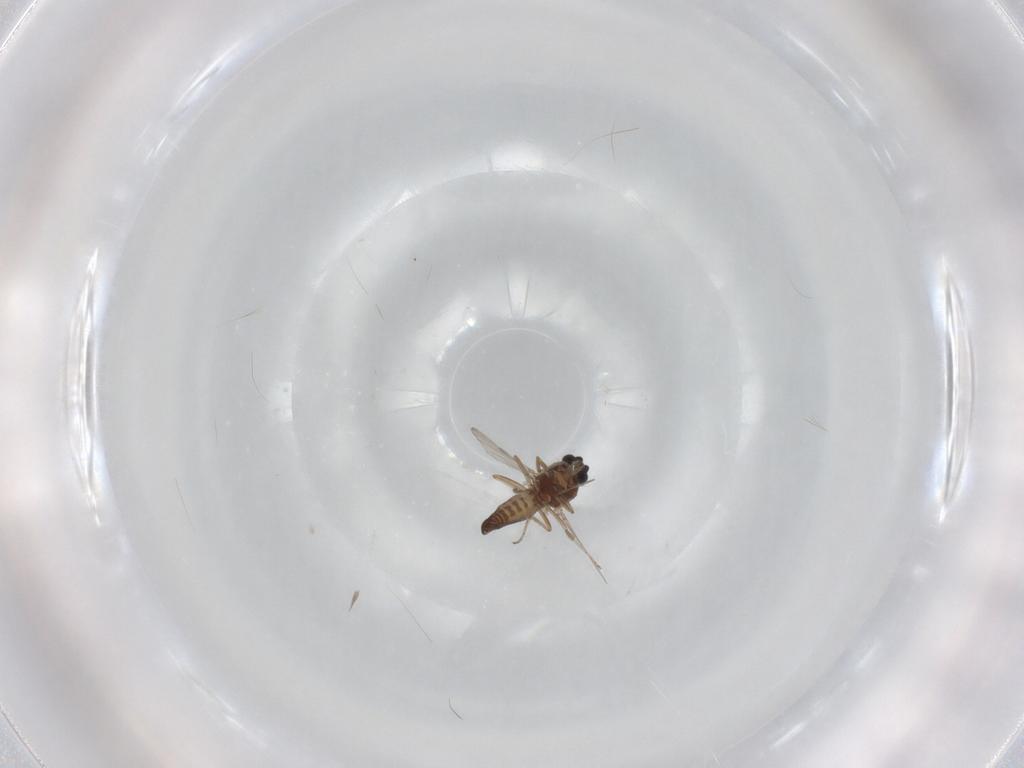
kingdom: Animalia
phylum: Arthropoda
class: Insecta
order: Diptera
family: Ceratopogonidae
